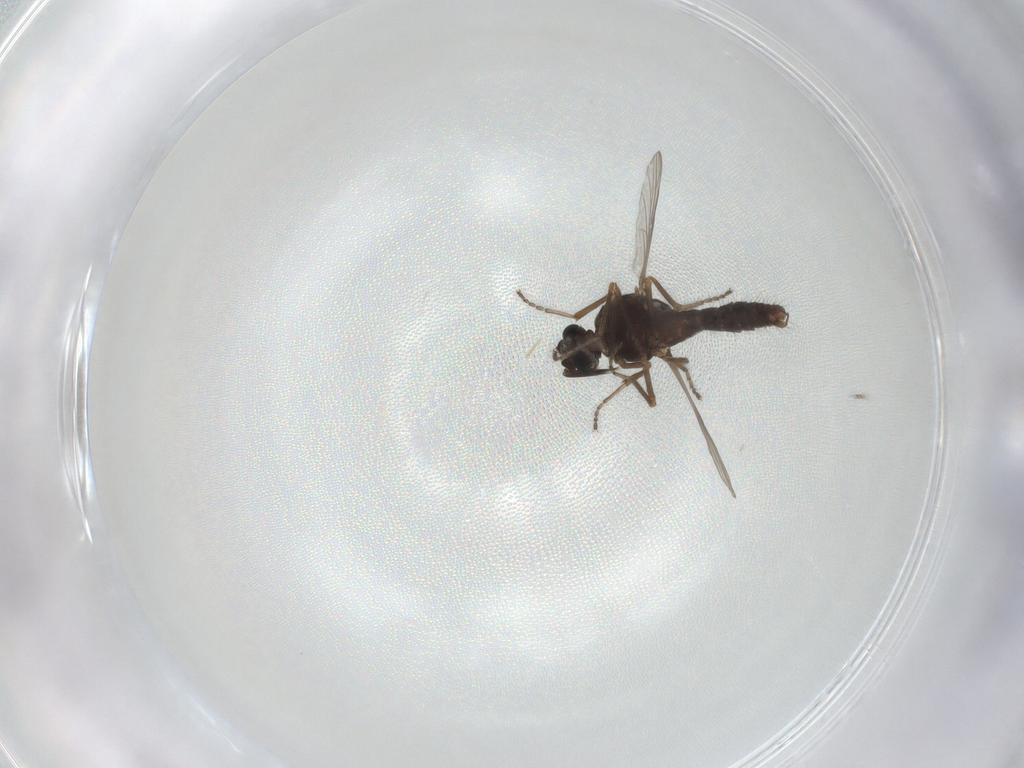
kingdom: Animalia
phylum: Arthropoda
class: Insecta
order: Diptera
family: Ceratopogonidae
